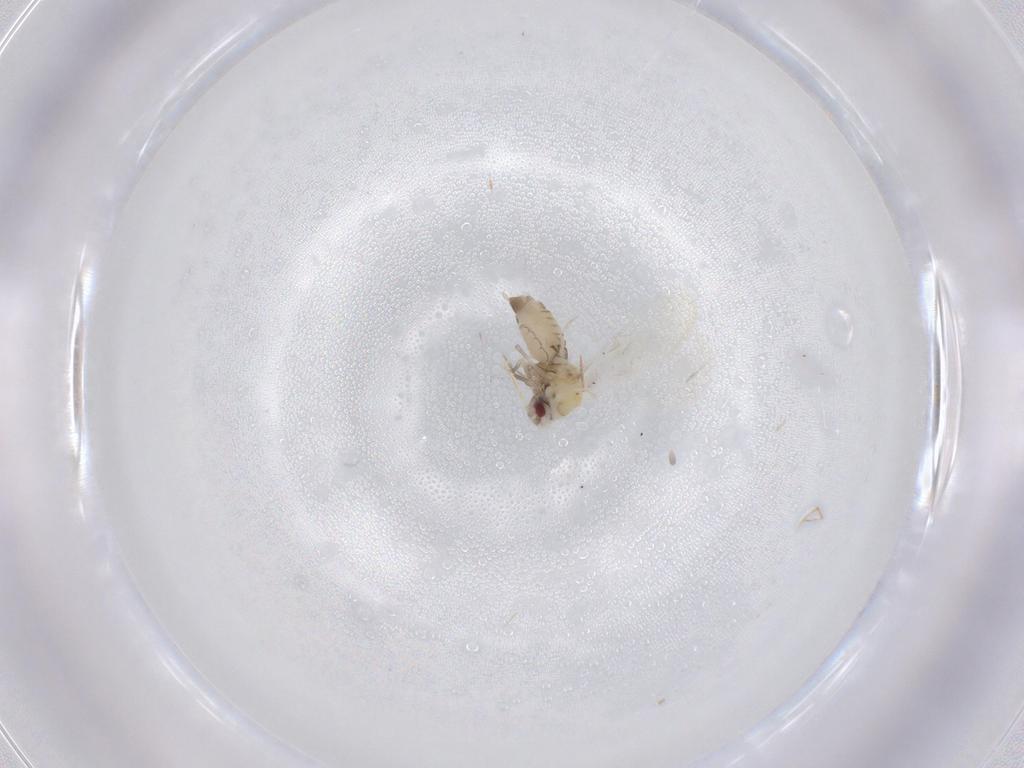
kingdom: Animalia
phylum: Arthropoda
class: Insecta
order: Hemiptera
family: Aleyrodidae
